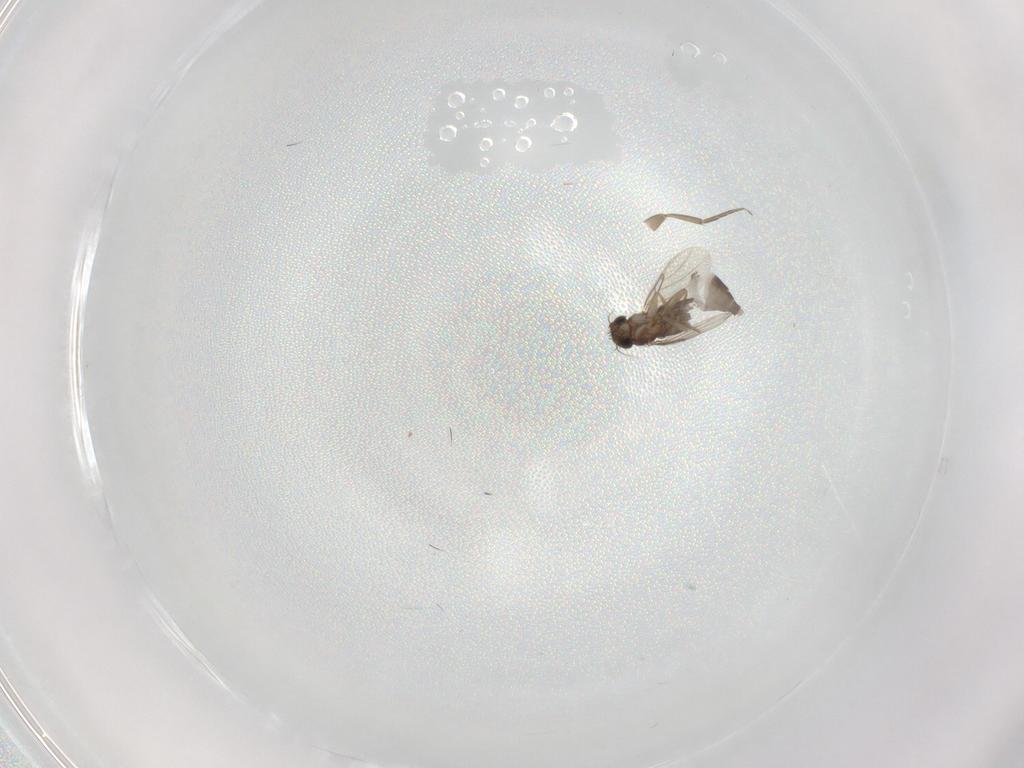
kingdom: Animalia
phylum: Arthropoda
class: Insecta
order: Diptera
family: Phoridae
